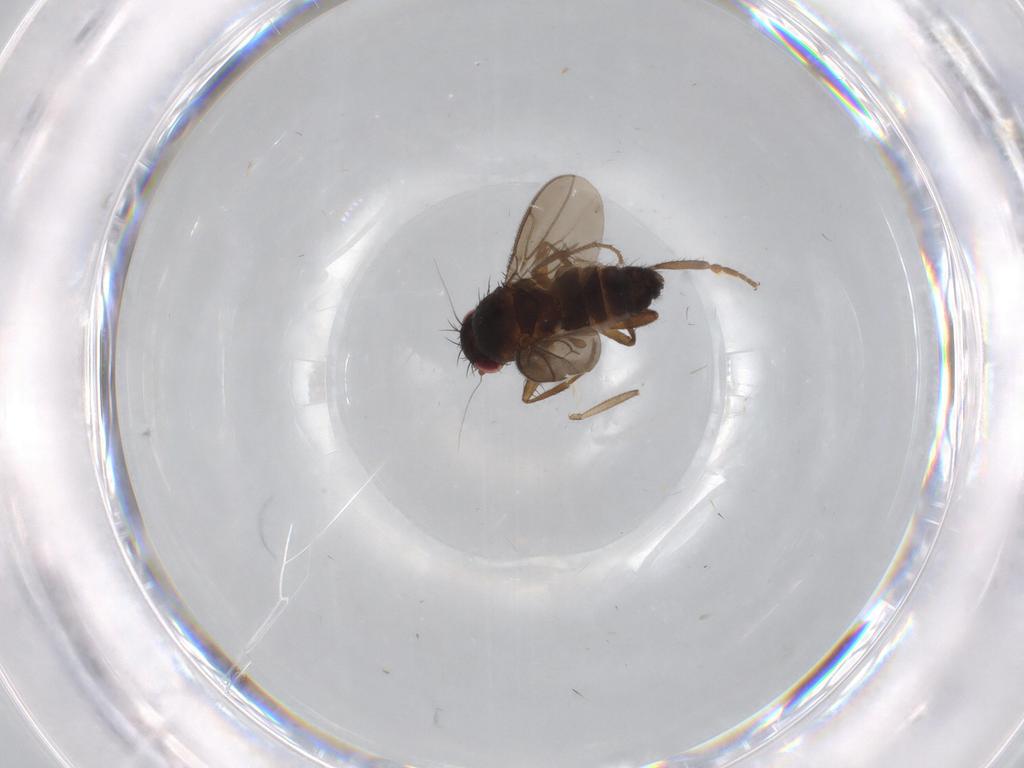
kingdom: Animalia
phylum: Arthropoda
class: Insecta
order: Diptera
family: Sphaeroceridae
